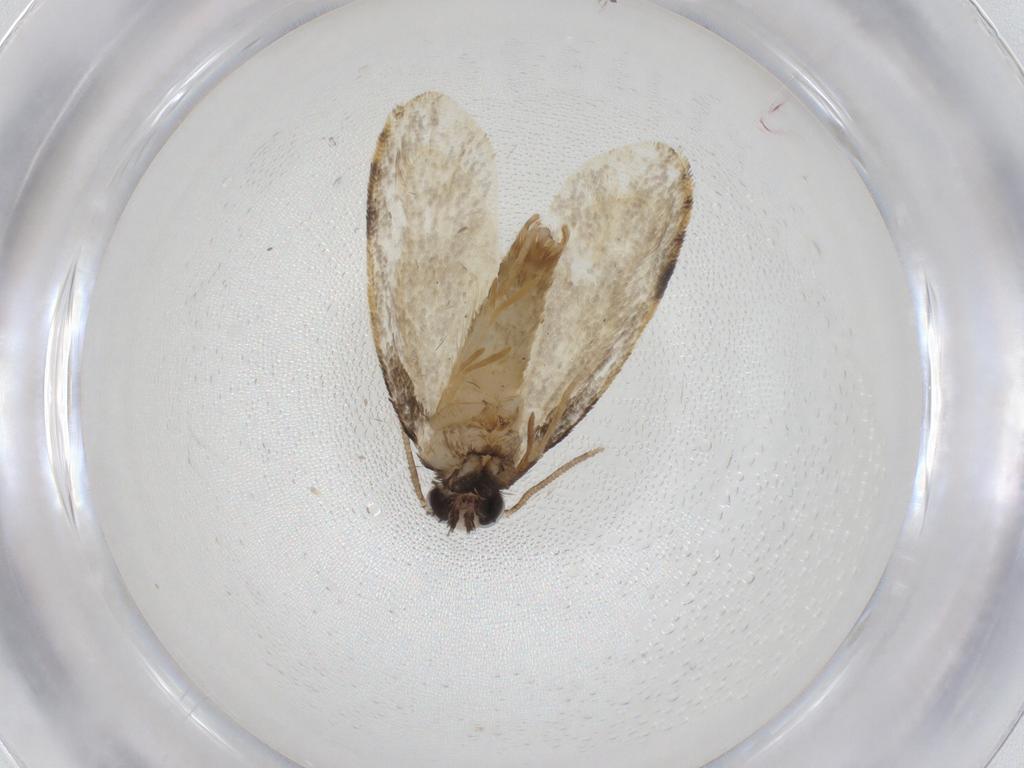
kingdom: Animalia
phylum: Arthropoda
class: Insecta
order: Lepidoptera
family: Psychidae
